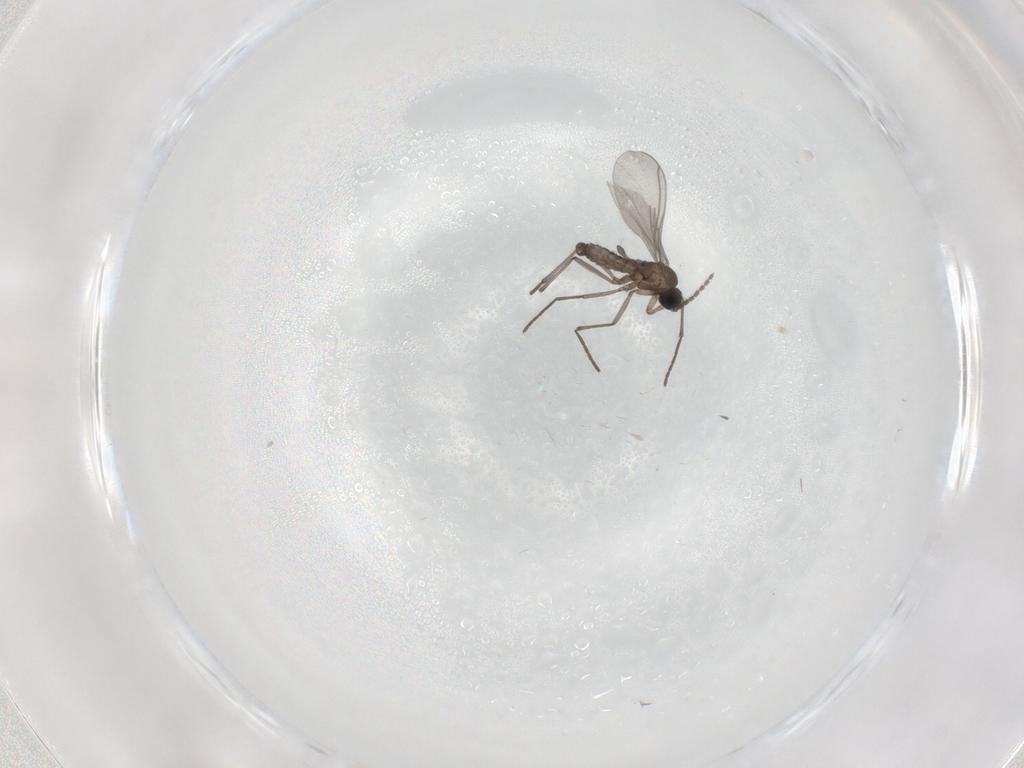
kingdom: Animalia
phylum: Arthropoda
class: Insecta
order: Diptera
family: Sciaridae
